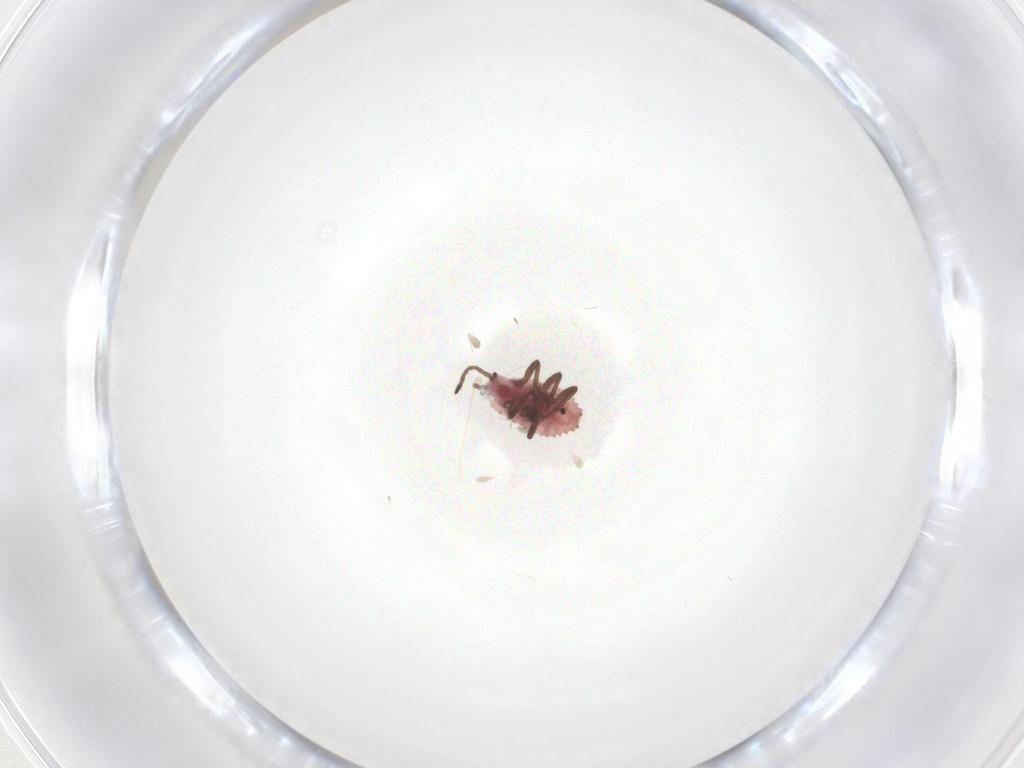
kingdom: Animalia
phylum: Arthropoda
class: Insecta
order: Hemiptera
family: Putoidae
